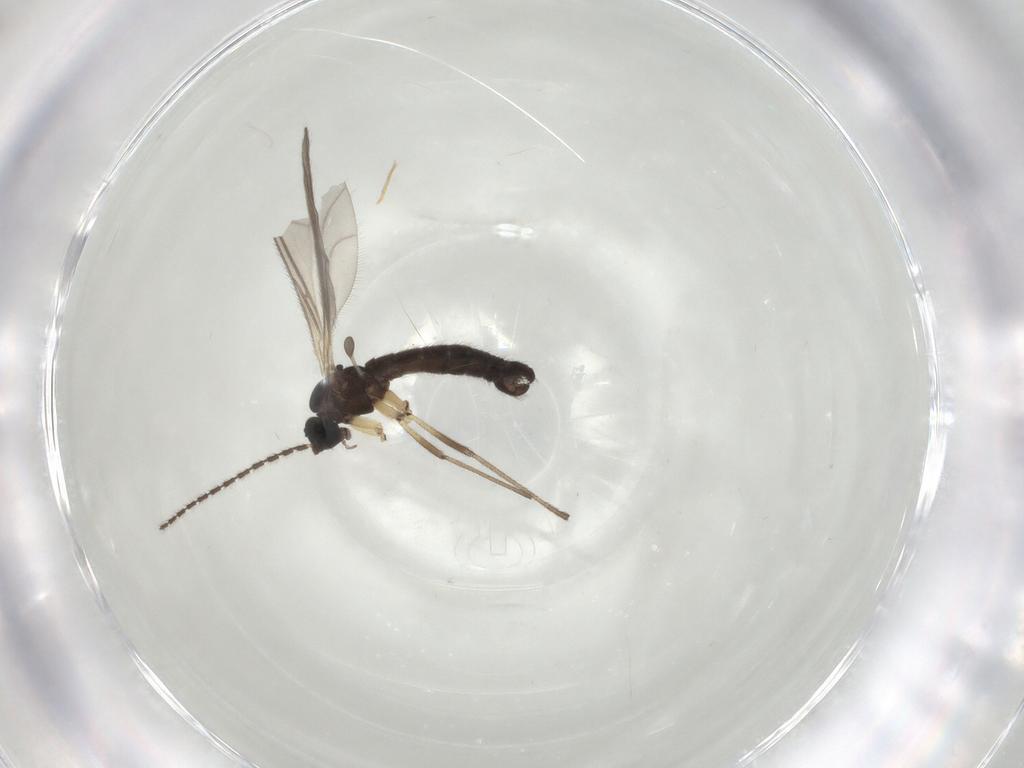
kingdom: Animalia
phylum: Arthropoda
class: Insecta
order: Diptera
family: Sciaridae
